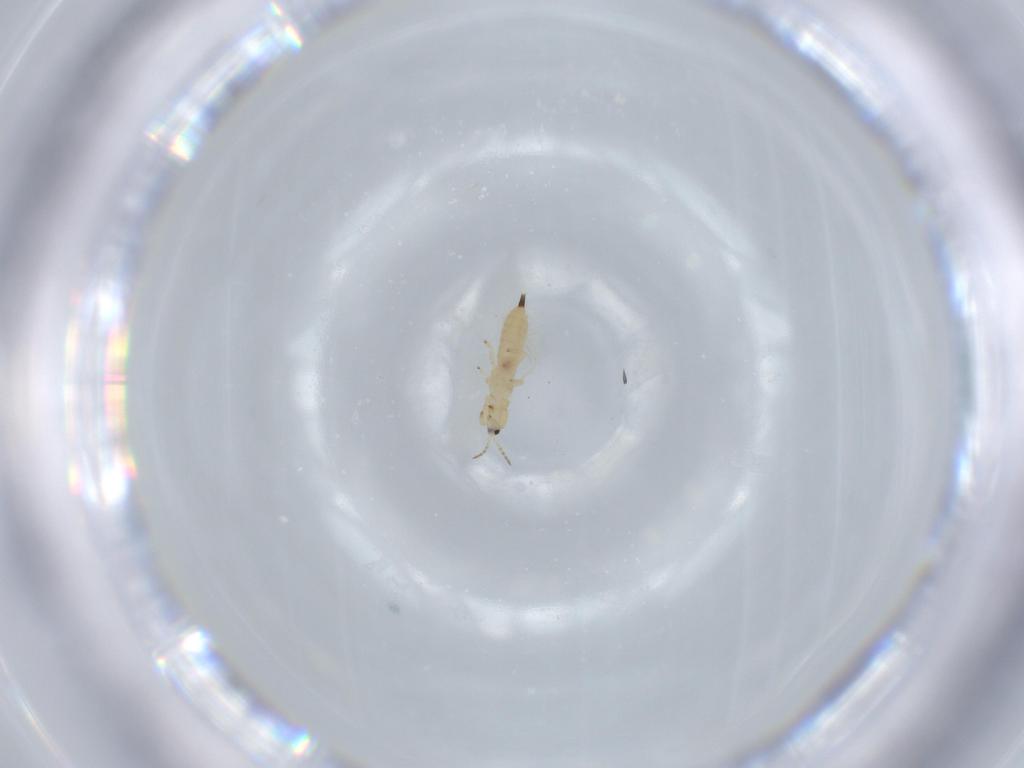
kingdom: Animalia
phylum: Arthropoda
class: Insecta
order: Thysanoptera
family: Phlaeothripidae
